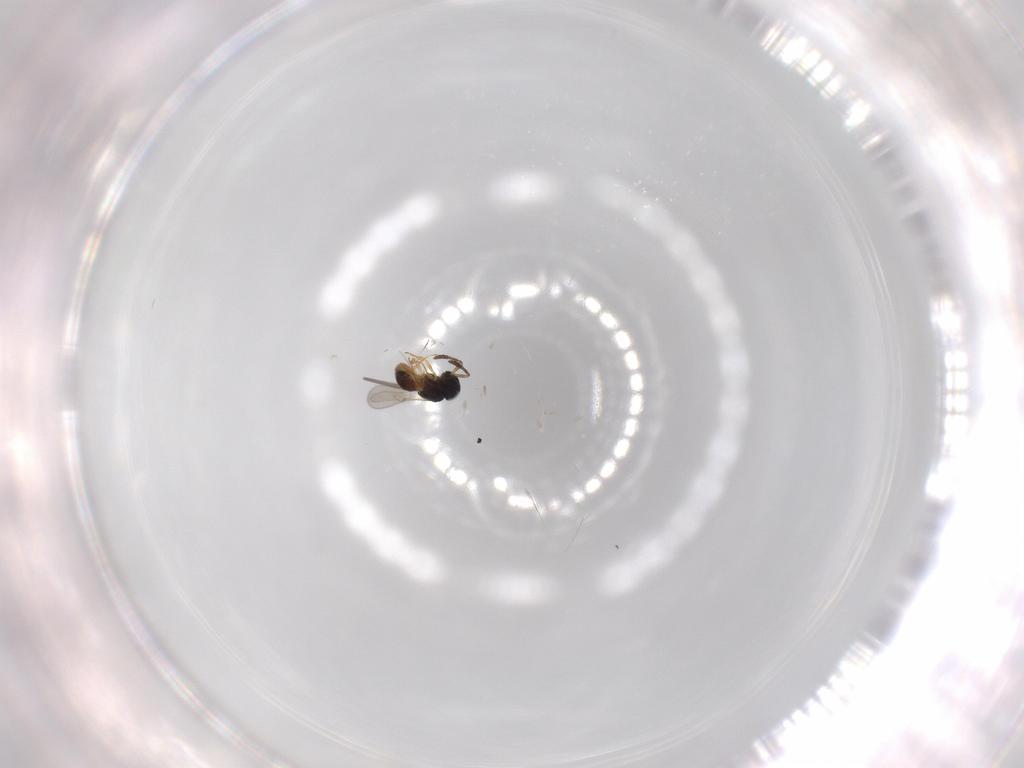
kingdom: Animalia
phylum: Arthropoda
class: Insecta
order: Hymenoptera
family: Scelionidae
